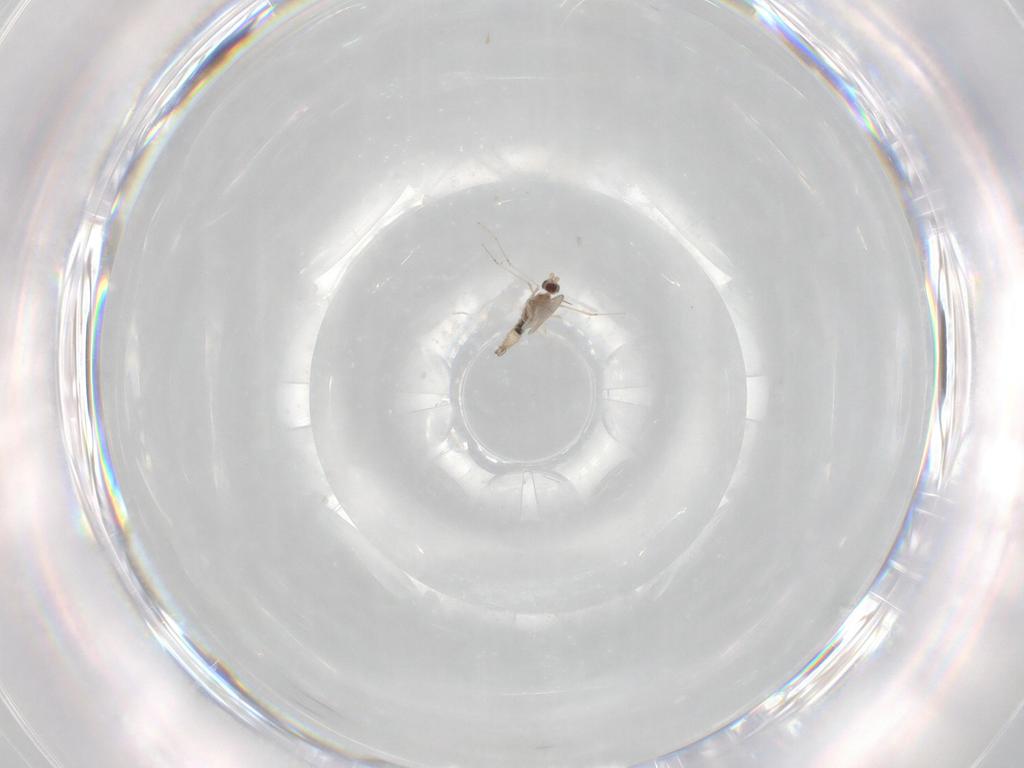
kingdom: Animalia
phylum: Arthropoda
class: Insecta
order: Diptera
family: Cecidomyiidae
